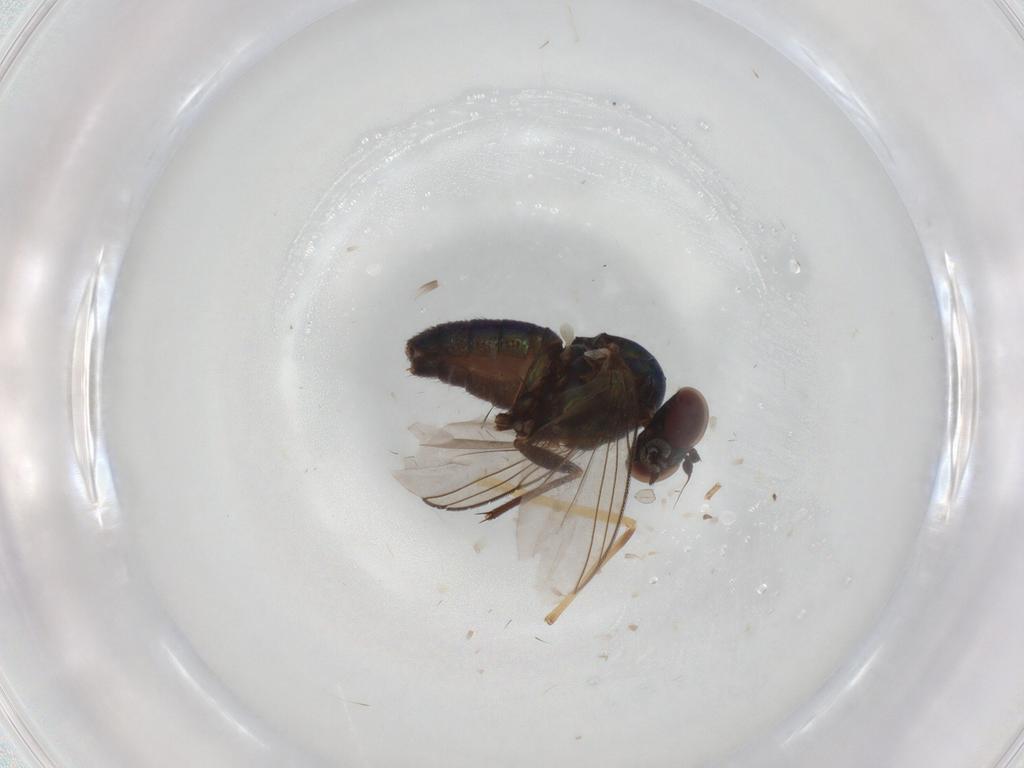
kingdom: Animalia
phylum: Arthropoda
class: Insecta
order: Diptera
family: Dolichopodidae
